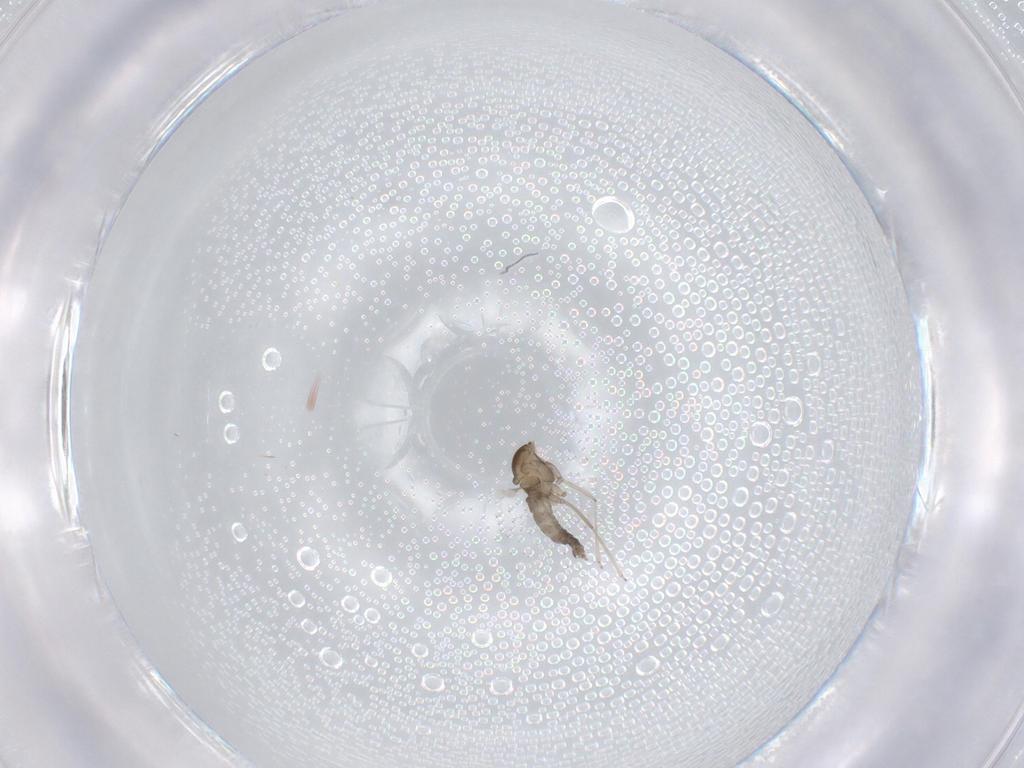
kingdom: Animalia
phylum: Arthropoda
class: Insecta
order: Diptera
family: Cecidomyiidae
